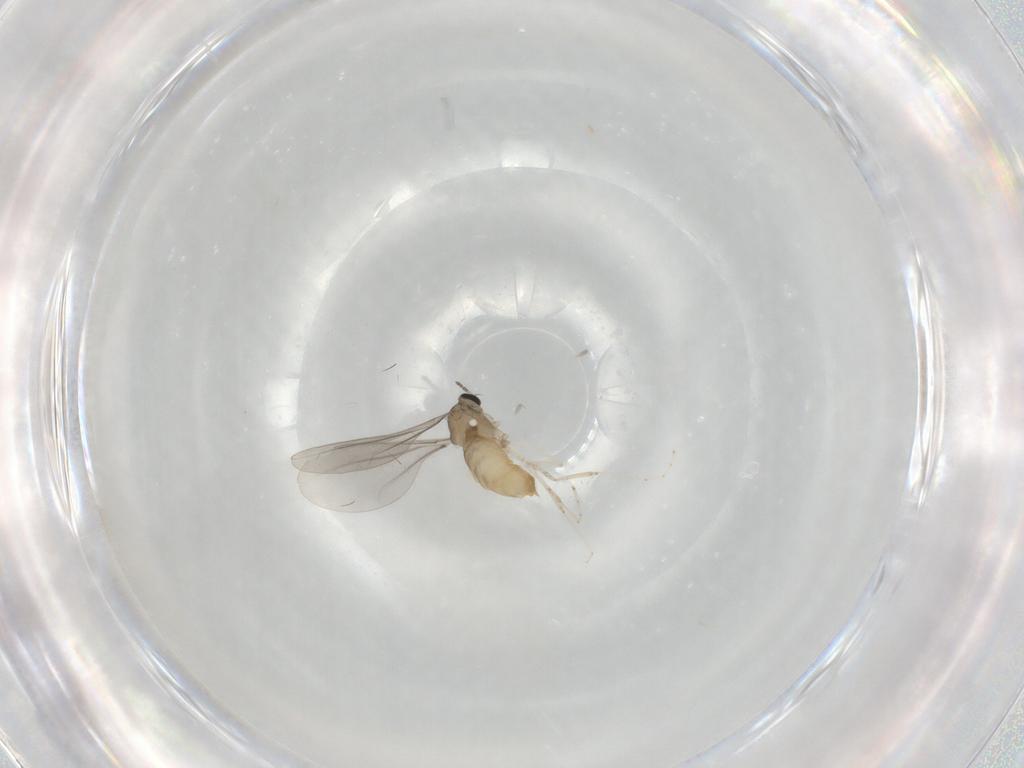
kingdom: Animalia
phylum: Arthropoda
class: Insecta
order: Diptera
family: Cecidomyiidae
